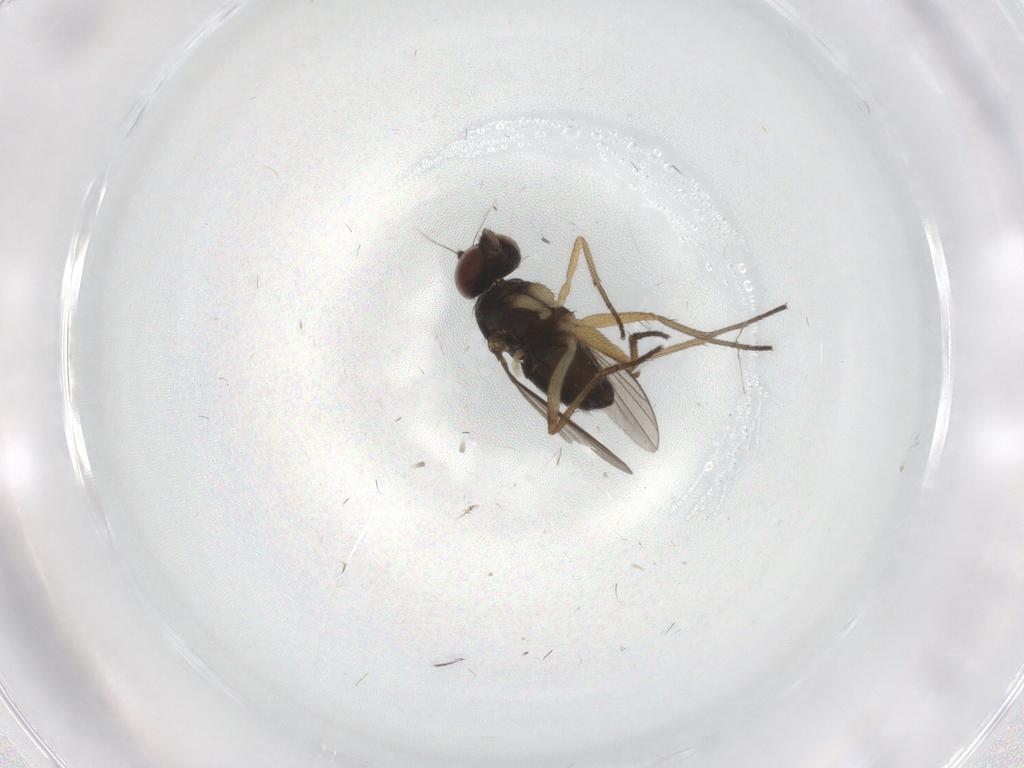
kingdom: Animalia
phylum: Arthropoda
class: Insecta
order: Diptera
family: Dolichopodidae
